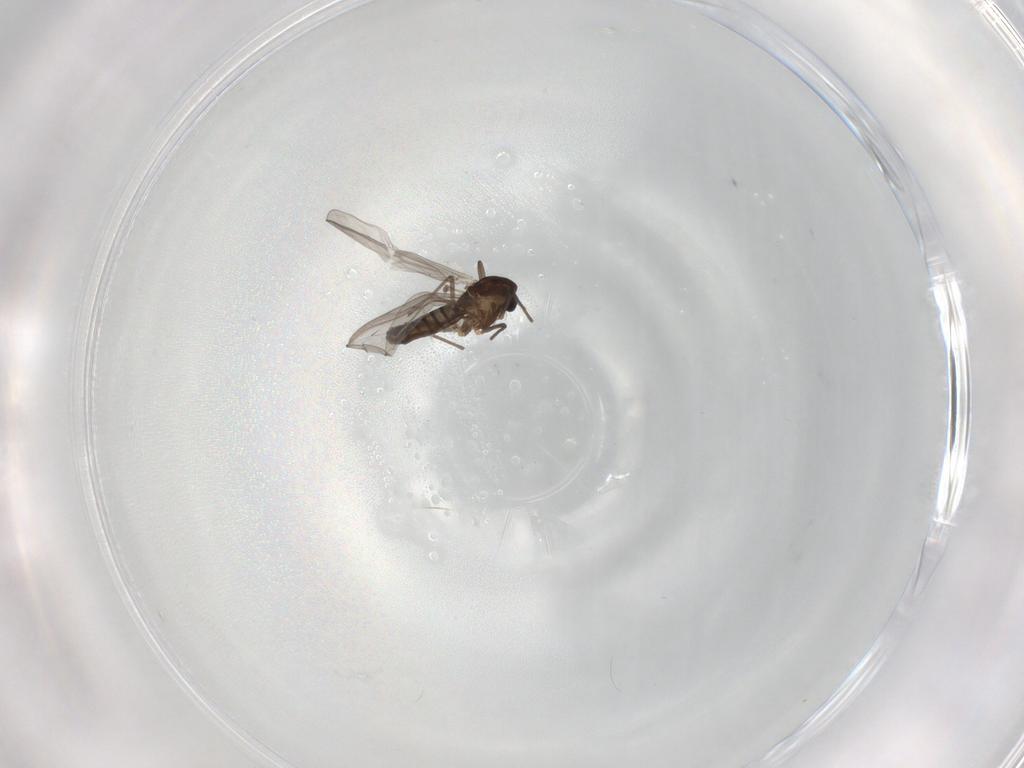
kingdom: Animalia
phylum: Arthropoda
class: Insecta
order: Diptera
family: Chironomidae
